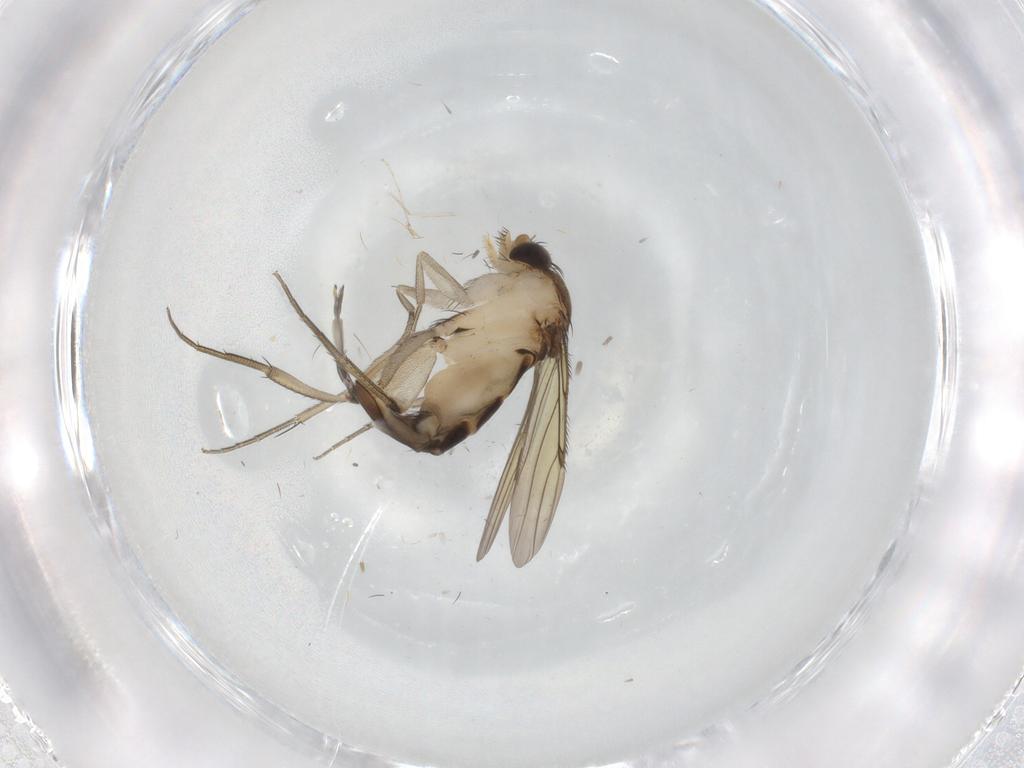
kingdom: Animalia
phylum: Arthropoda
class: Insecta
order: Diptera
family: Phoridae
